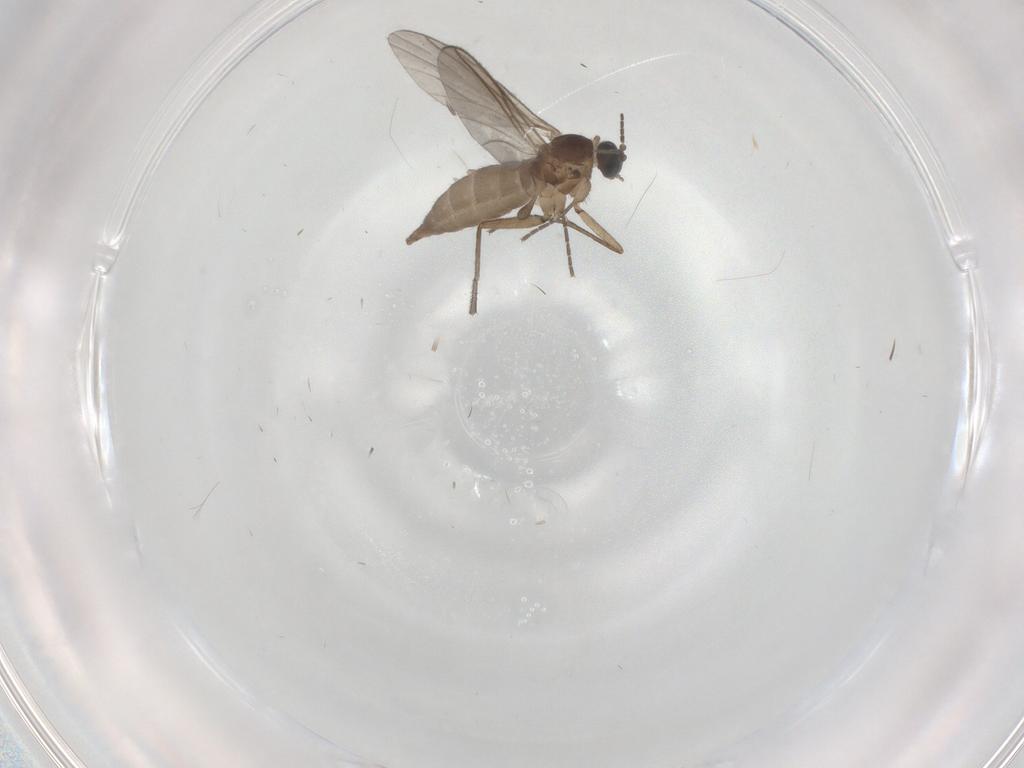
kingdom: Animalia
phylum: Arthropoda
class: Insecta
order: Diptera
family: Sciaridae
